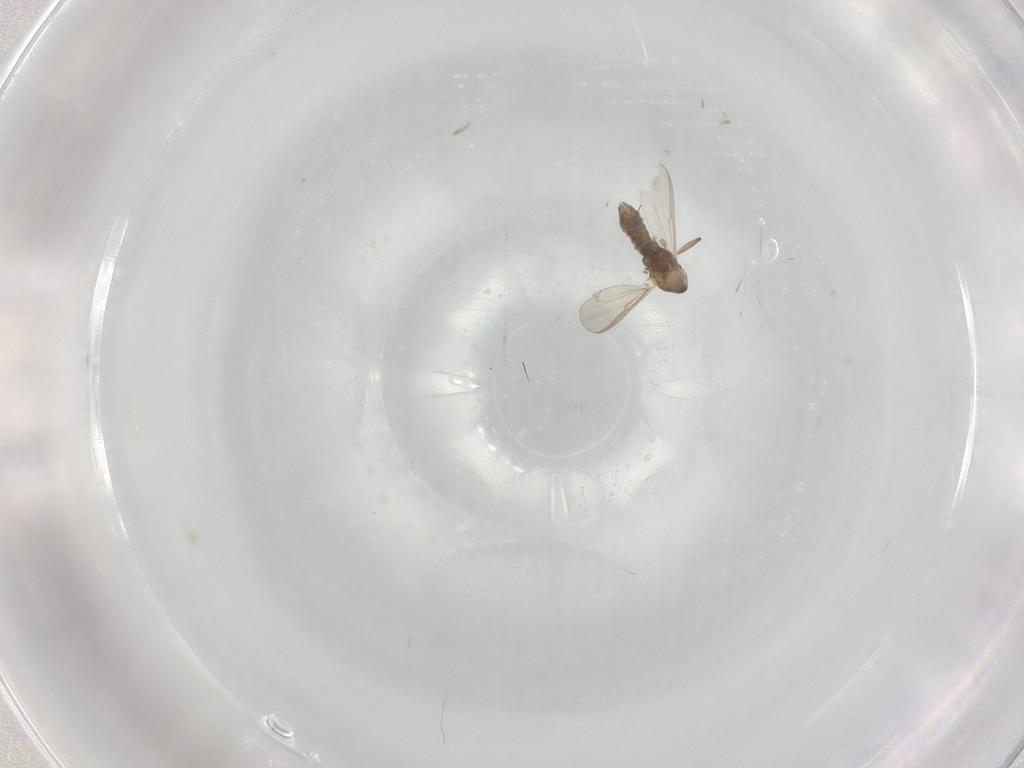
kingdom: Animalia
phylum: Arthropoda
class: Insecta
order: Diptera
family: Chironomidae
